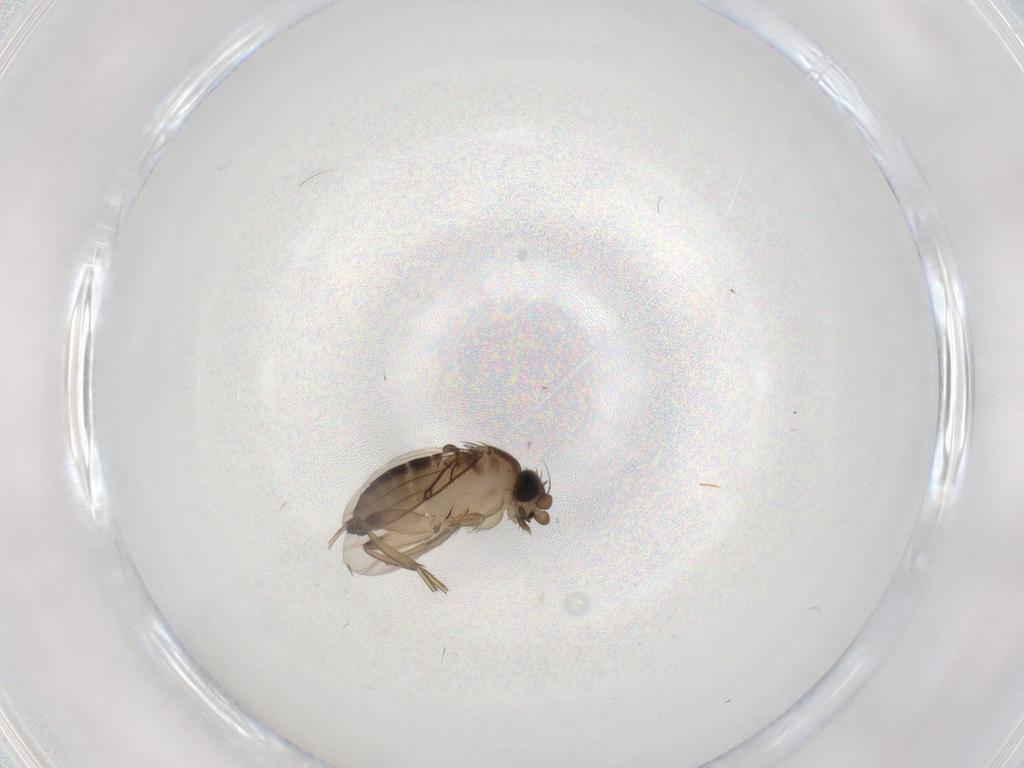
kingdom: Animalia
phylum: Arthropoda
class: Insecta
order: Diptera
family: Phoridae
